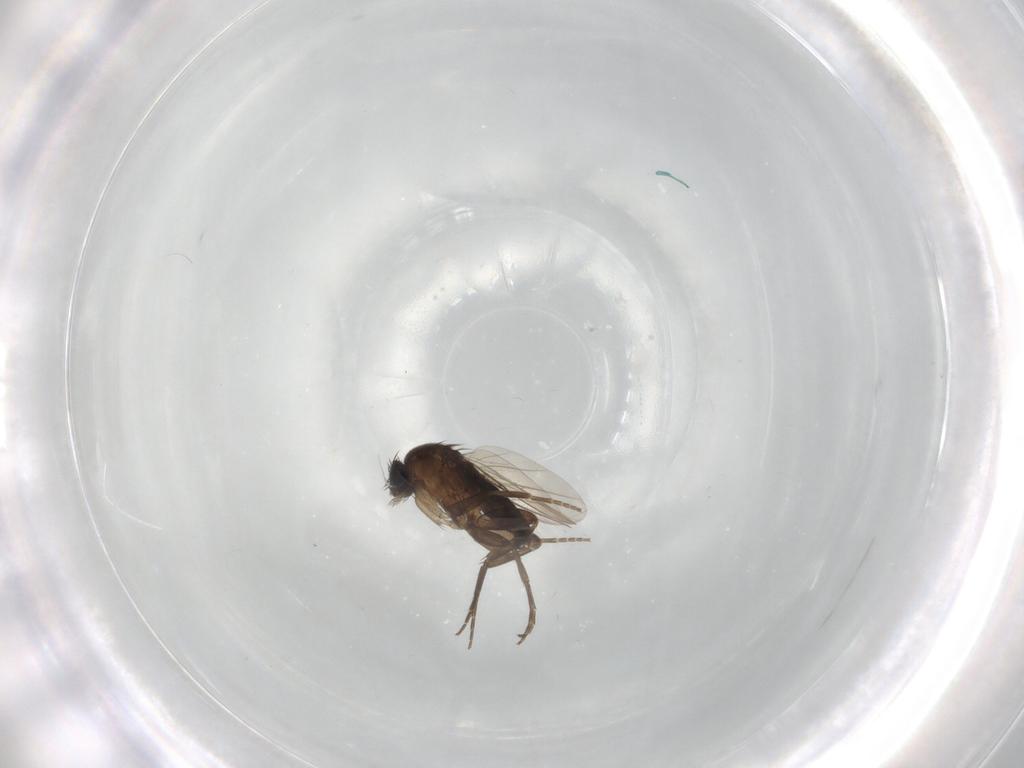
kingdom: Animalia
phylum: Arthropoda
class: Insecta
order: Diptera
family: Phoridae
